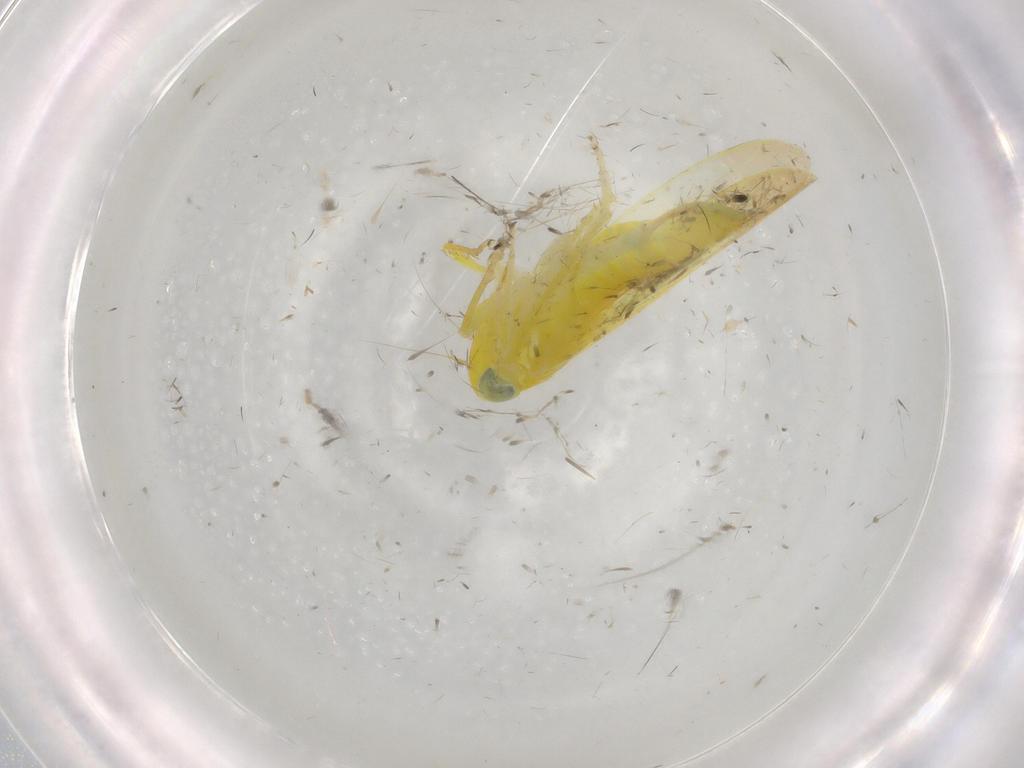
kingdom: Animalia
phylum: Arthropoda
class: Insecta
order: Hemiptera
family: Cicadellidae
